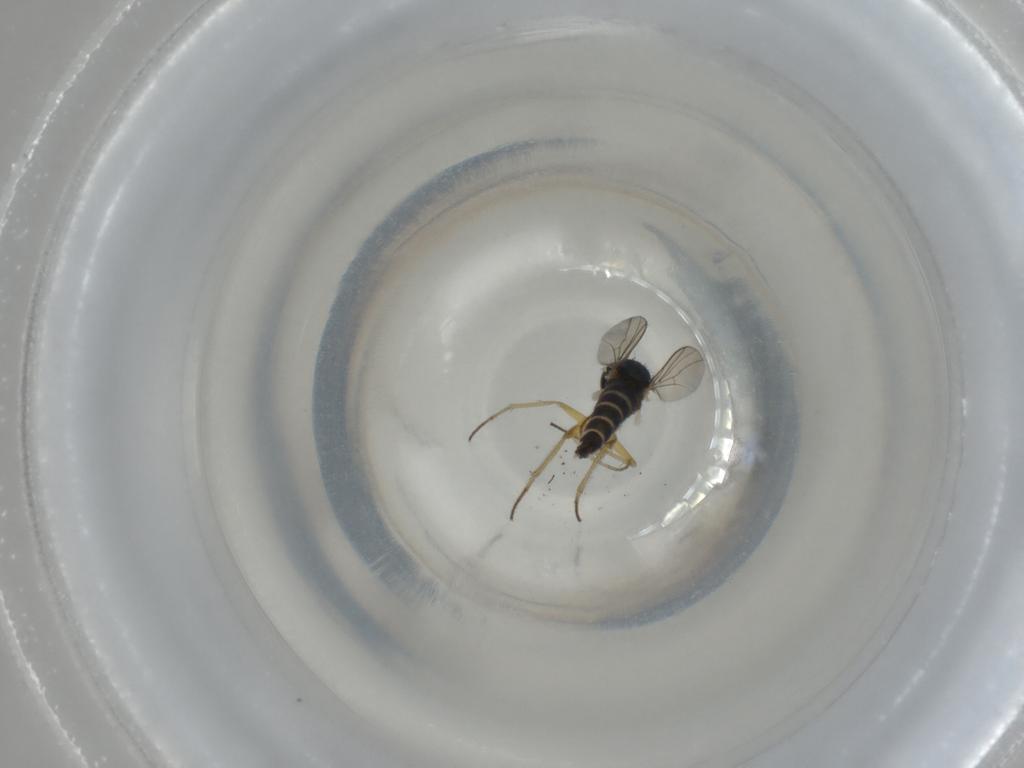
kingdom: Animalia
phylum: Arthropoda
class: Insecta
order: Diptera
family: Dolichopodidae
